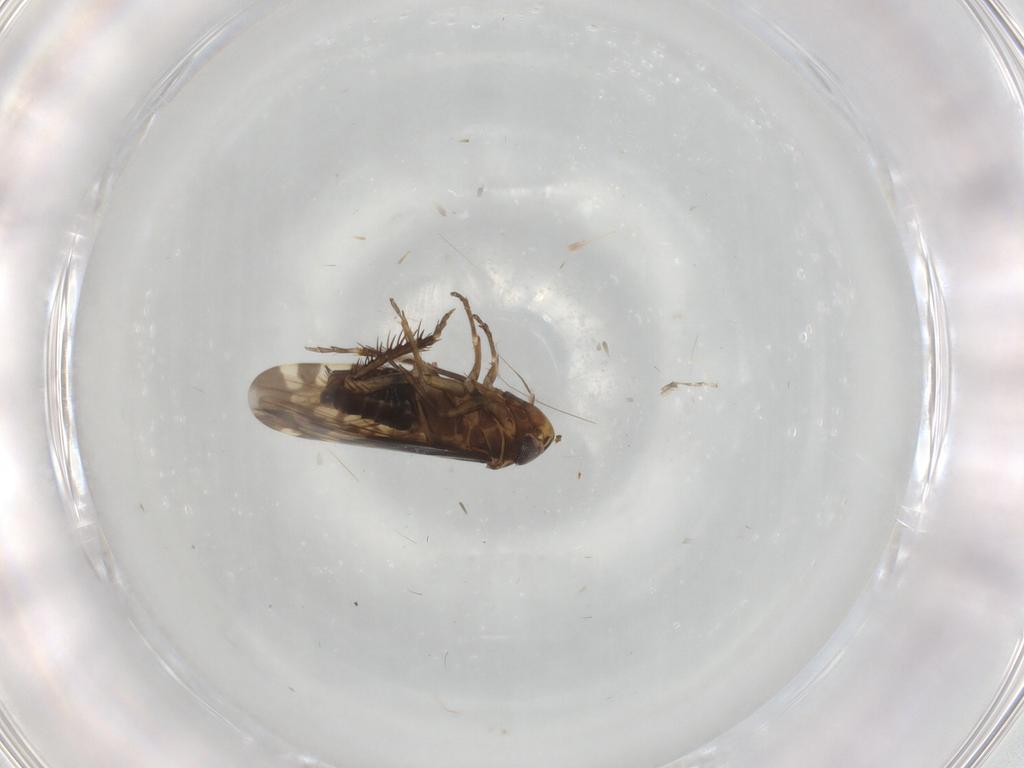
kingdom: Animalia
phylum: Arthropoda
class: Insecta
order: Hemiptera
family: Cicadellidae
